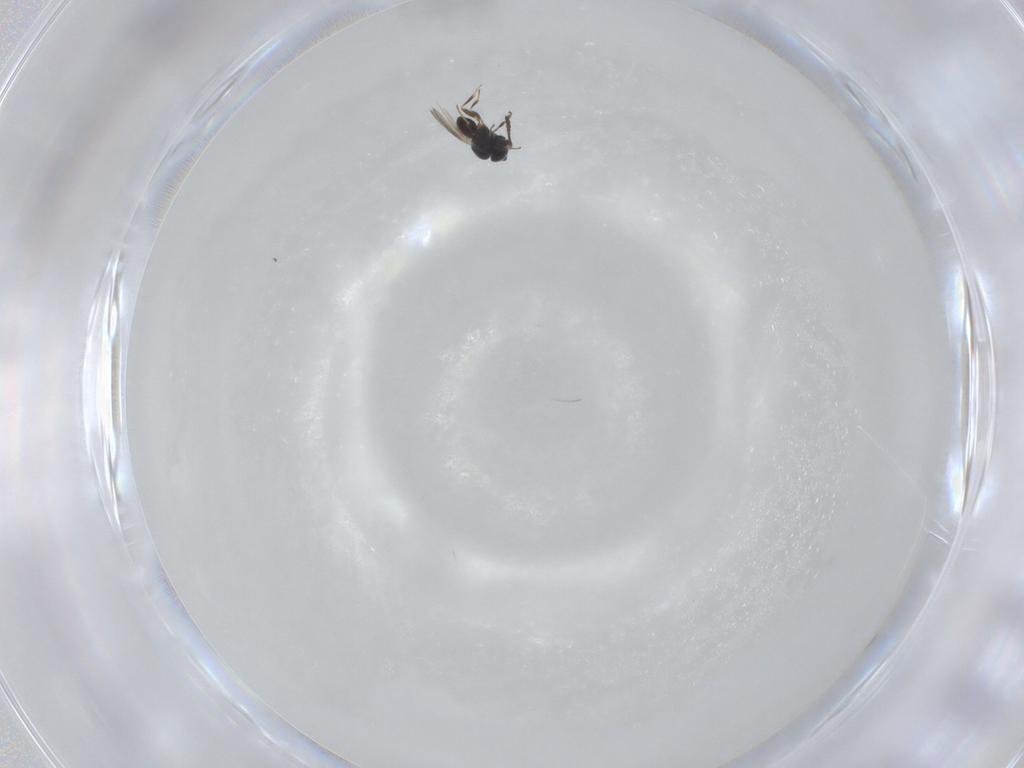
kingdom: Animalia
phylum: Arthropoda
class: Insecta
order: Hymenoptera
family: Scelionidae
